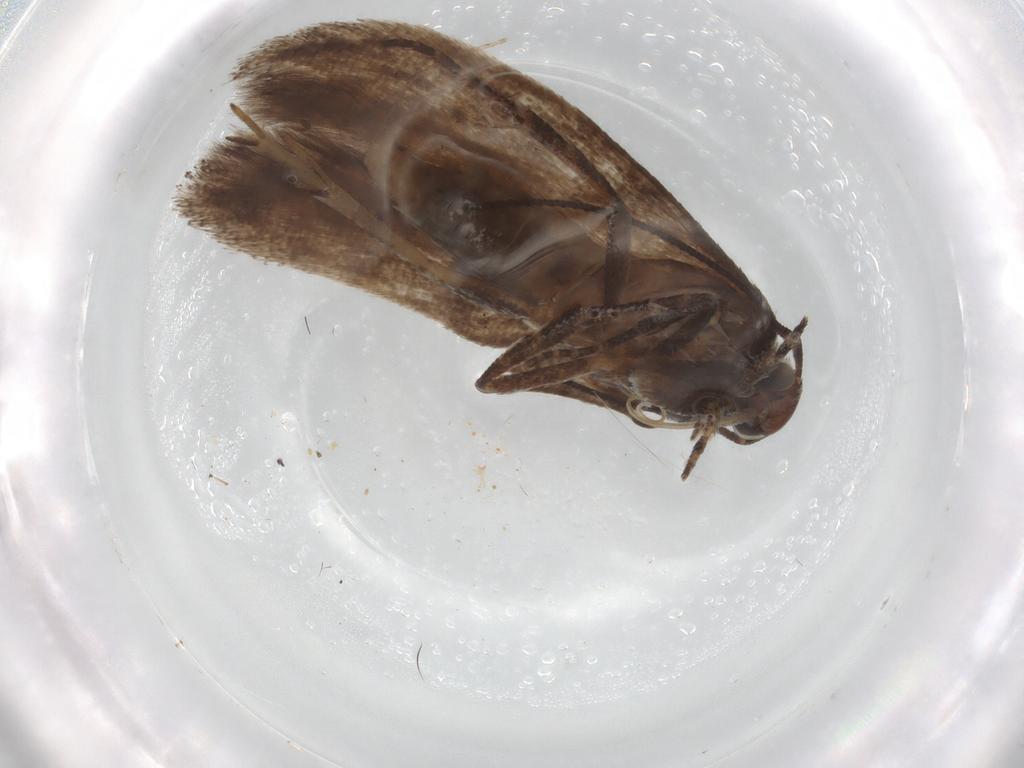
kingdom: Animalia
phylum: Arthropoda
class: Insecta
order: Lepidoptera
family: Gelechiidae
